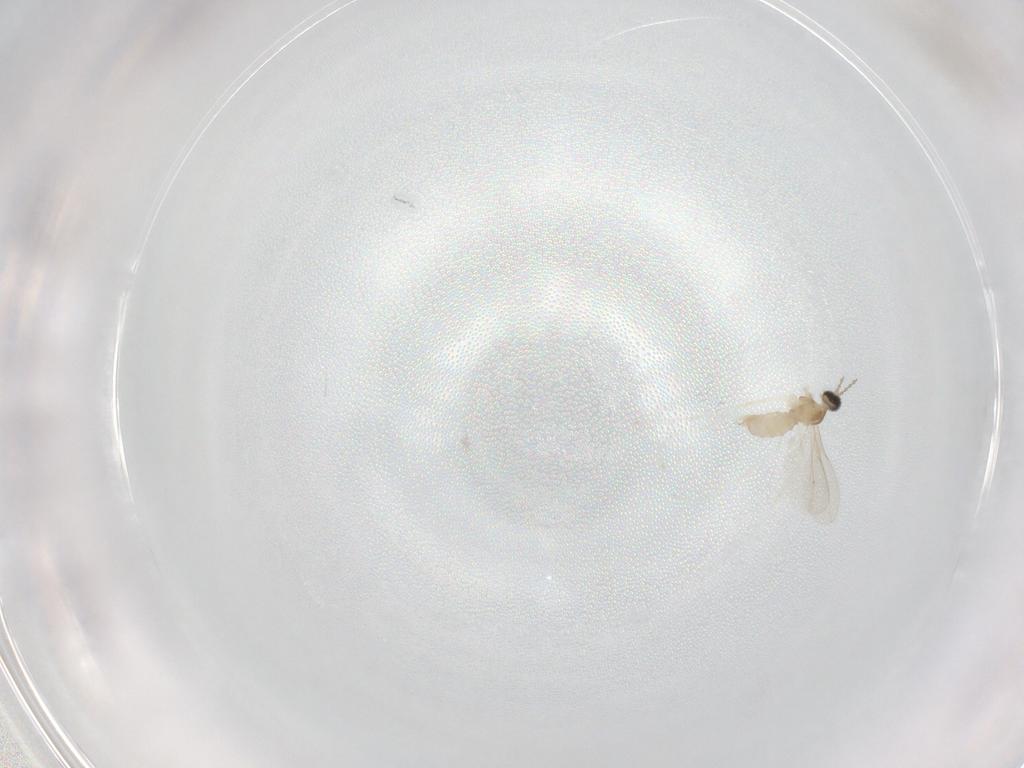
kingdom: Animalia
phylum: Arthropoda
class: Insecta
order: Diptera
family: Cecidomyiidae
